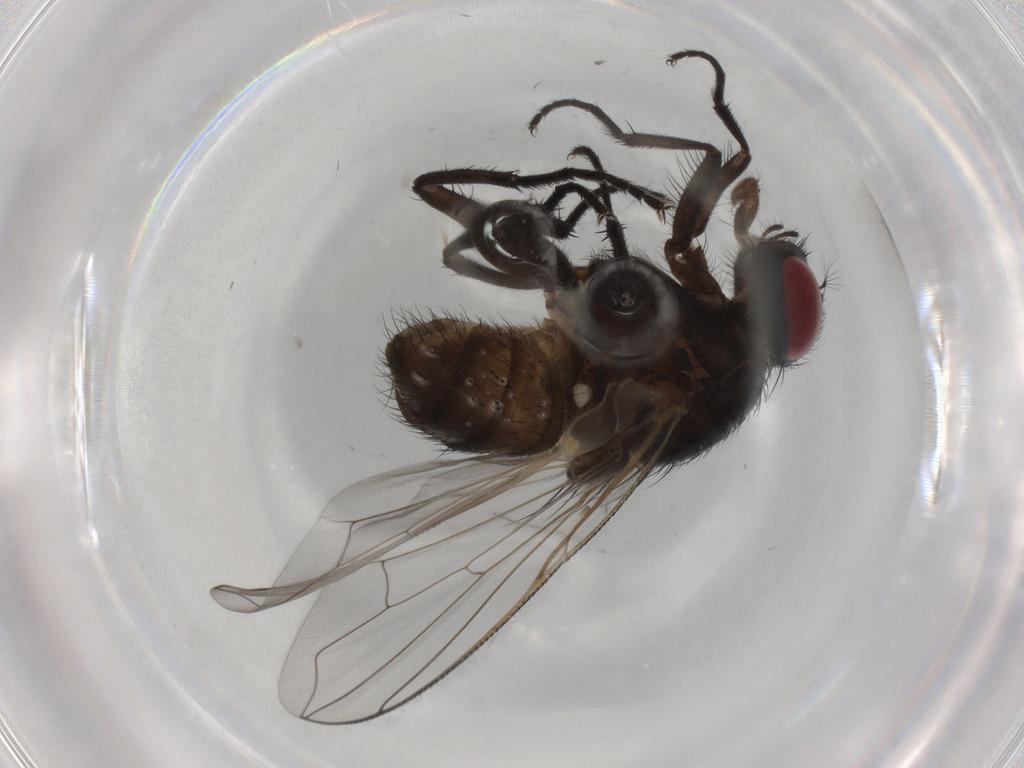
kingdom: Animalia
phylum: Arthropoda
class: Insecta
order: Diptera
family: Muscidae
